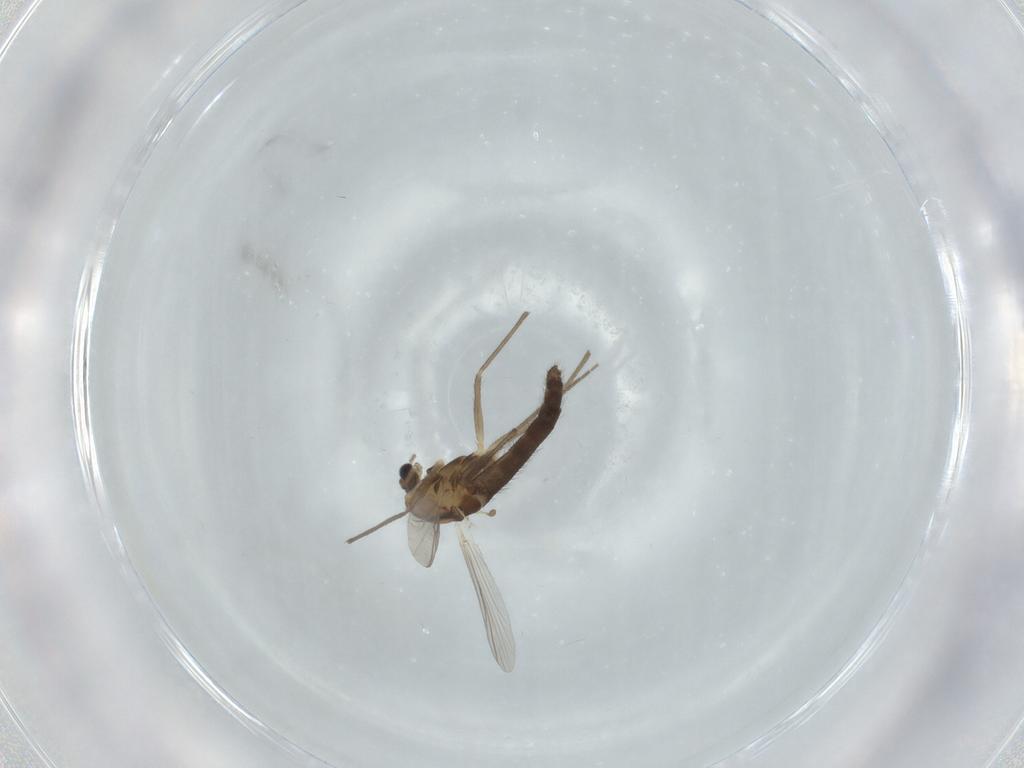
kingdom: Animalia
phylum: Arthropoda
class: Insecta
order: Diptera
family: Chironomidae
